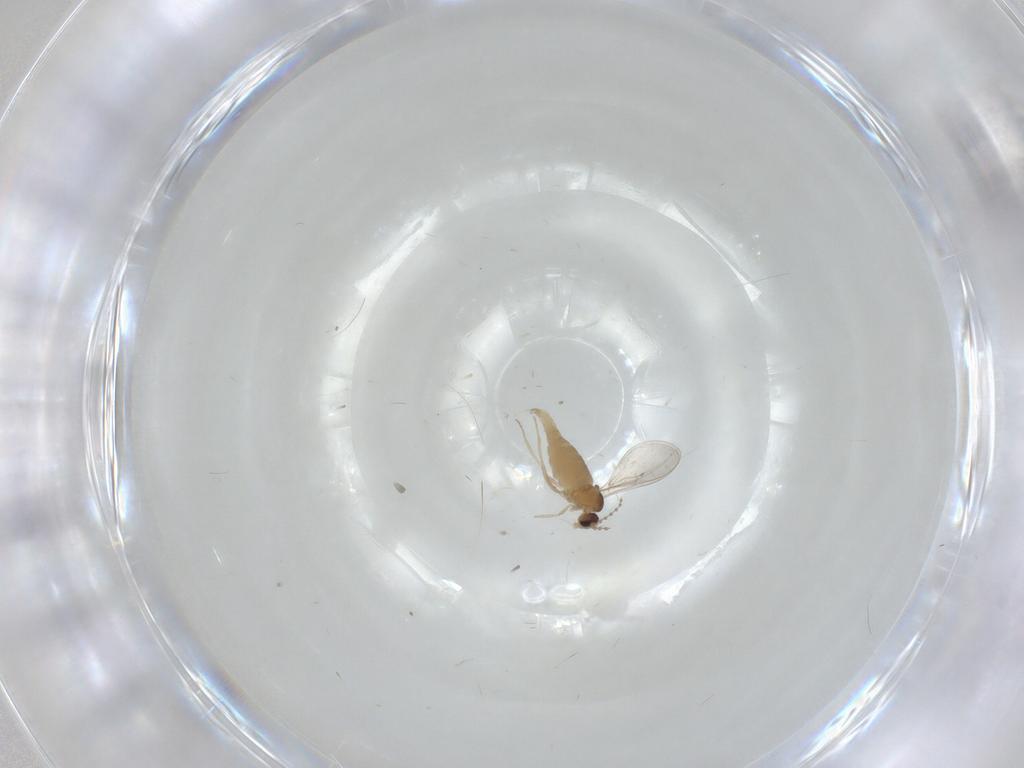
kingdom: Animalia
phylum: Arthropoda
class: Insecta
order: Diptera
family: Cecidomyiidae
